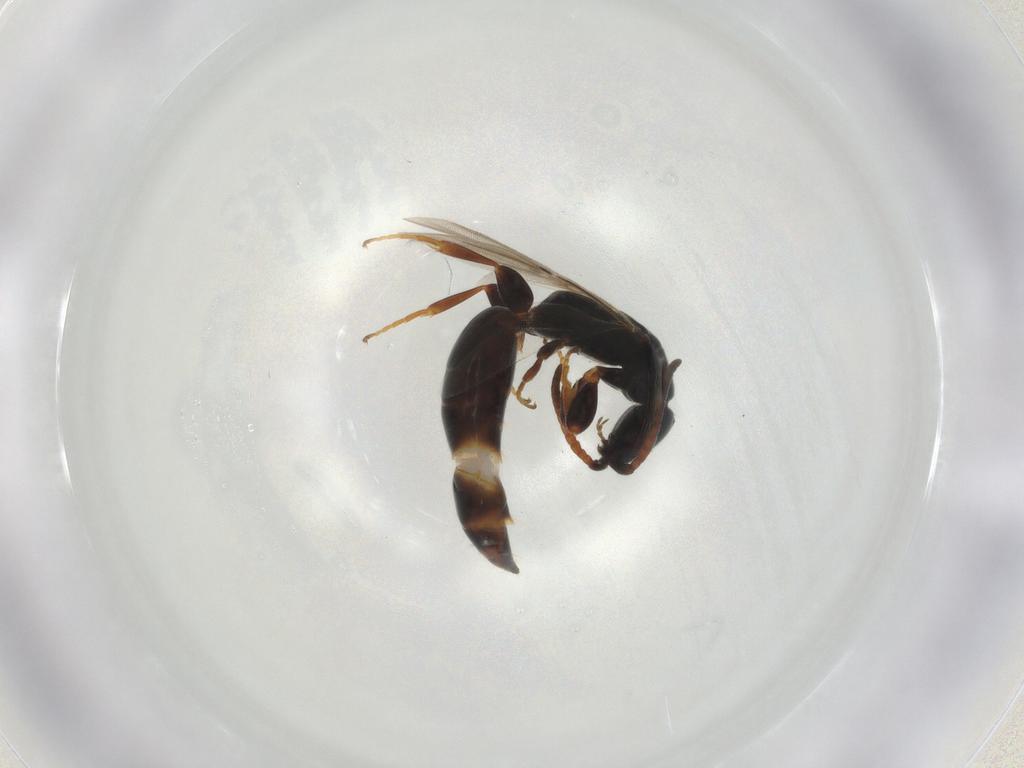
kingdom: Animalia
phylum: Arthropoda
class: Insecta
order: Hymenoptera
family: Bethylidae
